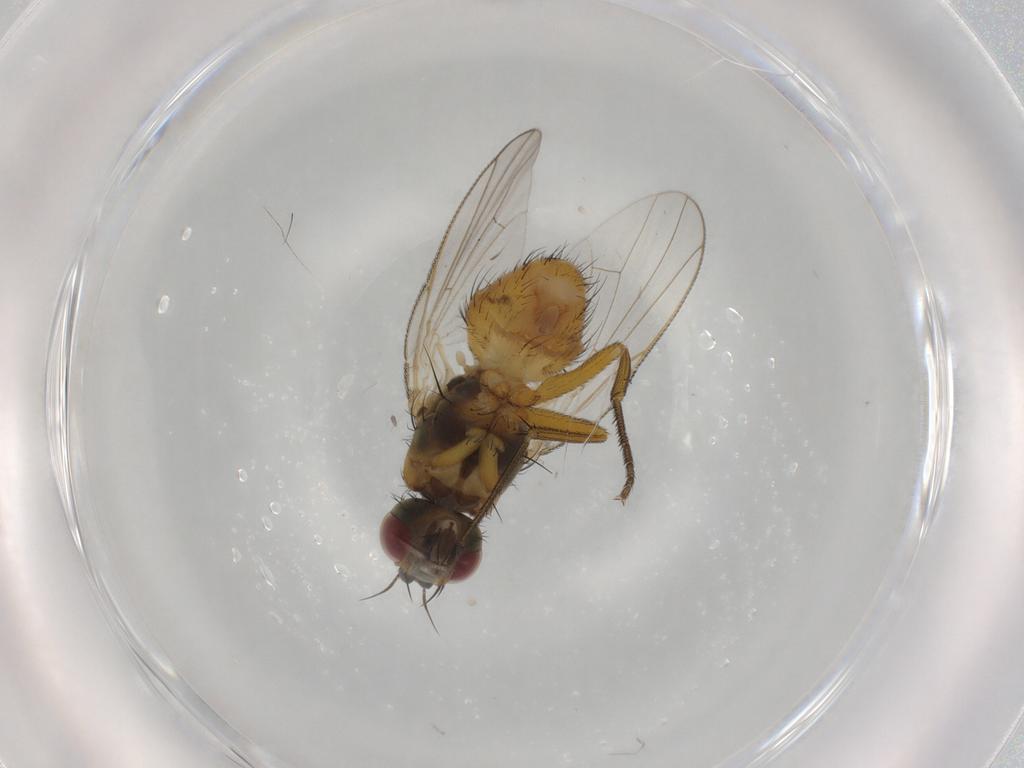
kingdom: Animalia
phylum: Arthropoda
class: Insecta
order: Diptera
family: Muscidae
